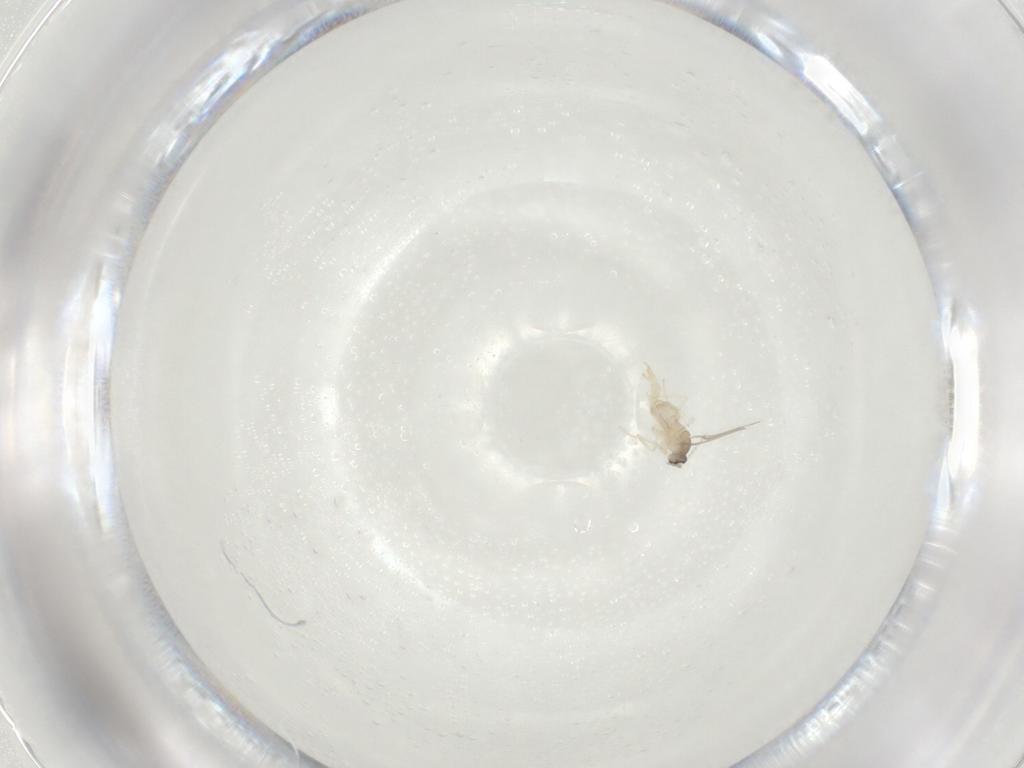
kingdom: Animalia
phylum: Arthropoda
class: Insecta
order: Diptera
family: Cecidomyiidae
